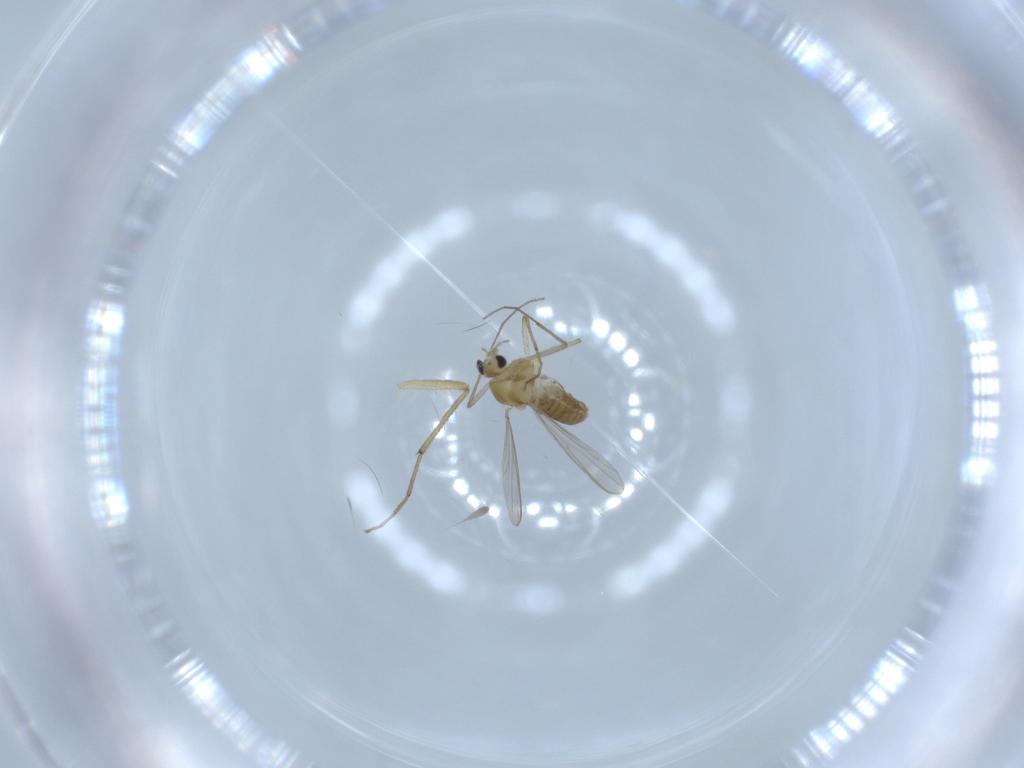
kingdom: Animalia
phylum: Arthropoda
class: Insecta
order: Diptera
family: Chironomidae
